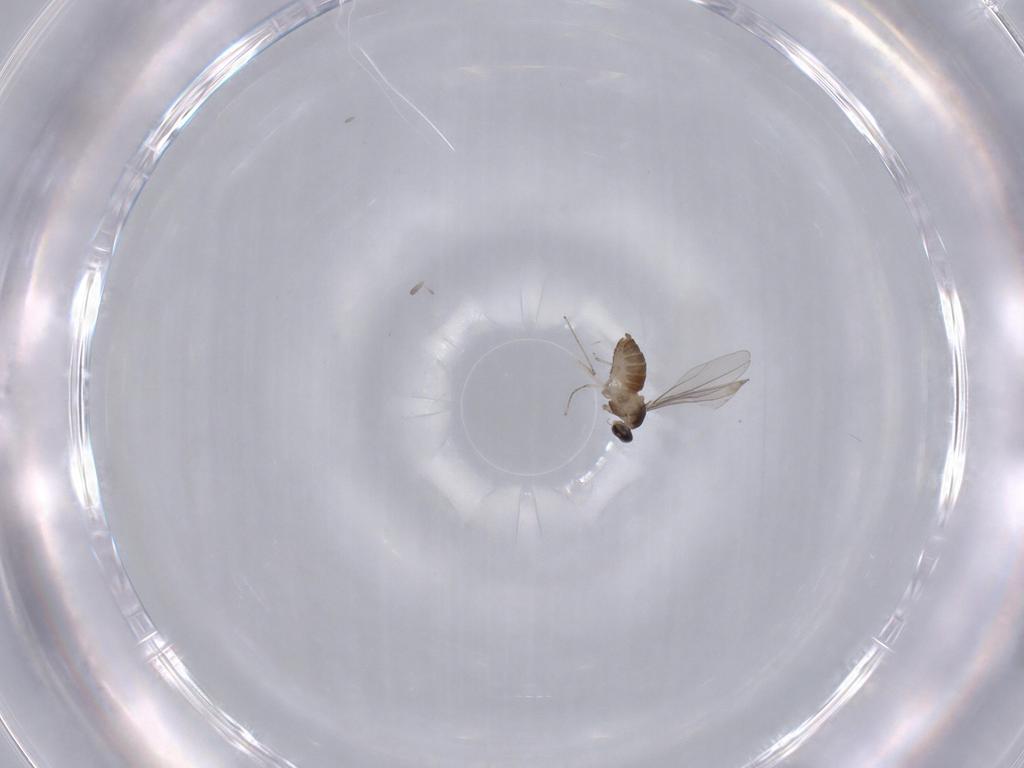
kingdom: Animalia
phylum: Arthropoda
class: Insecta
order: Diptera
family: Cecidomyiidae
